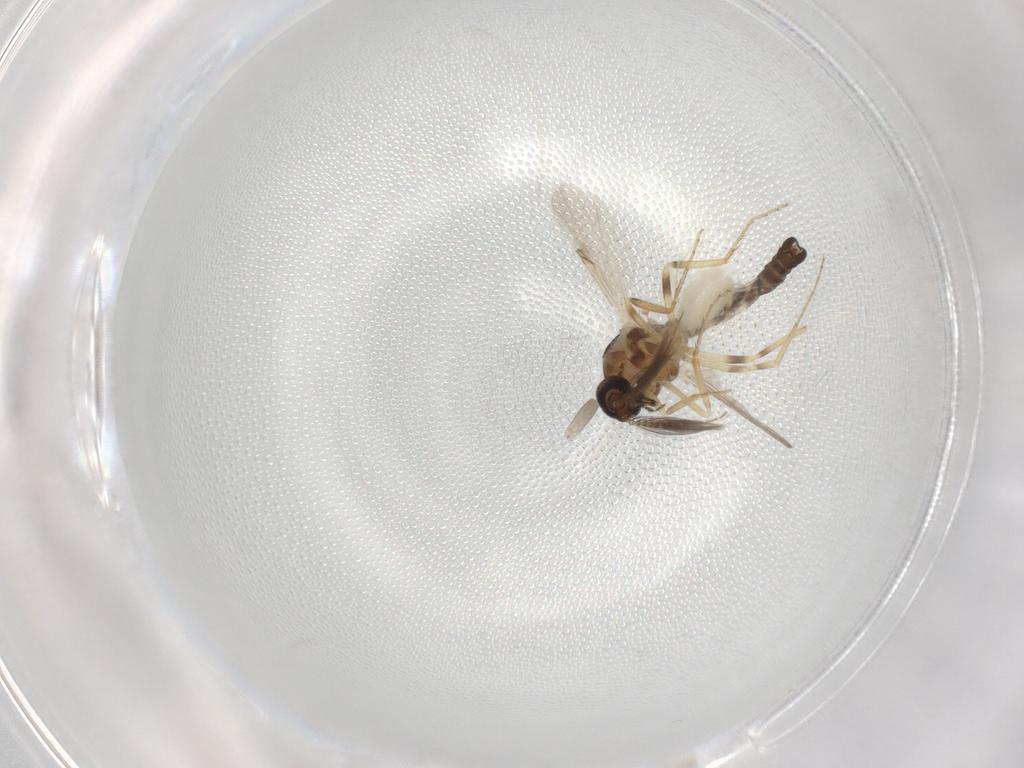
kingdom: Animalia
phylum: Arthropoda
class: Insecta
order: Diptera
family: Ceratopogonidae
